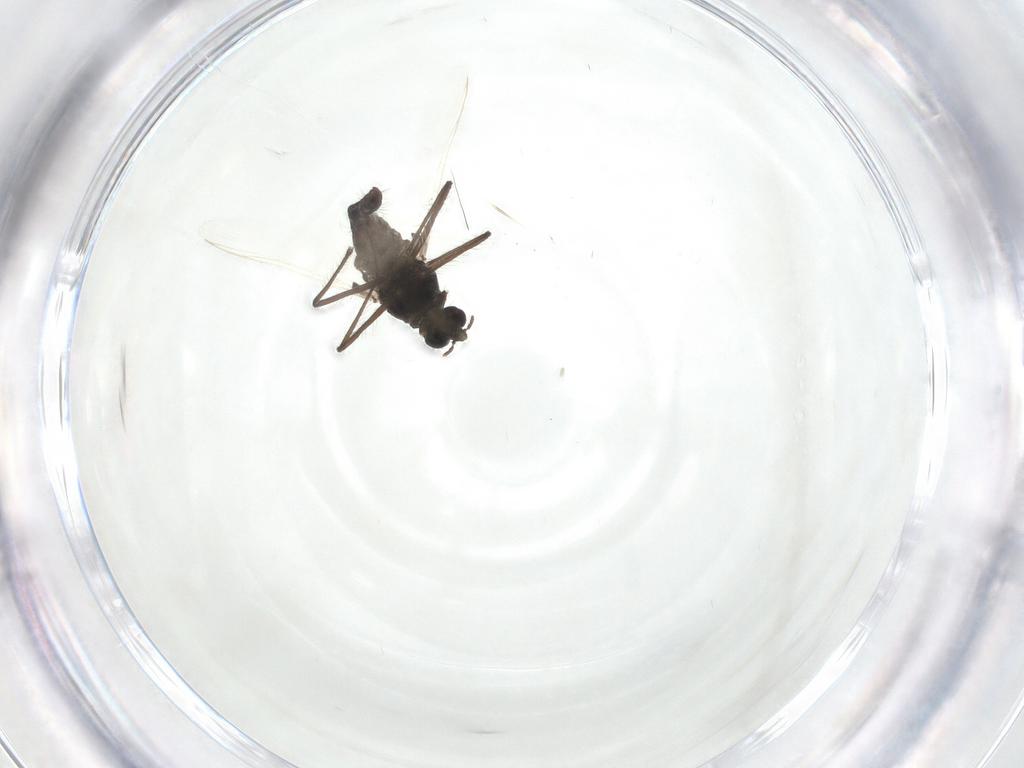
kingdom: Animalia
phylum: Arthropoda
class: Insecta
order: Diptera
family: Chironomidae
